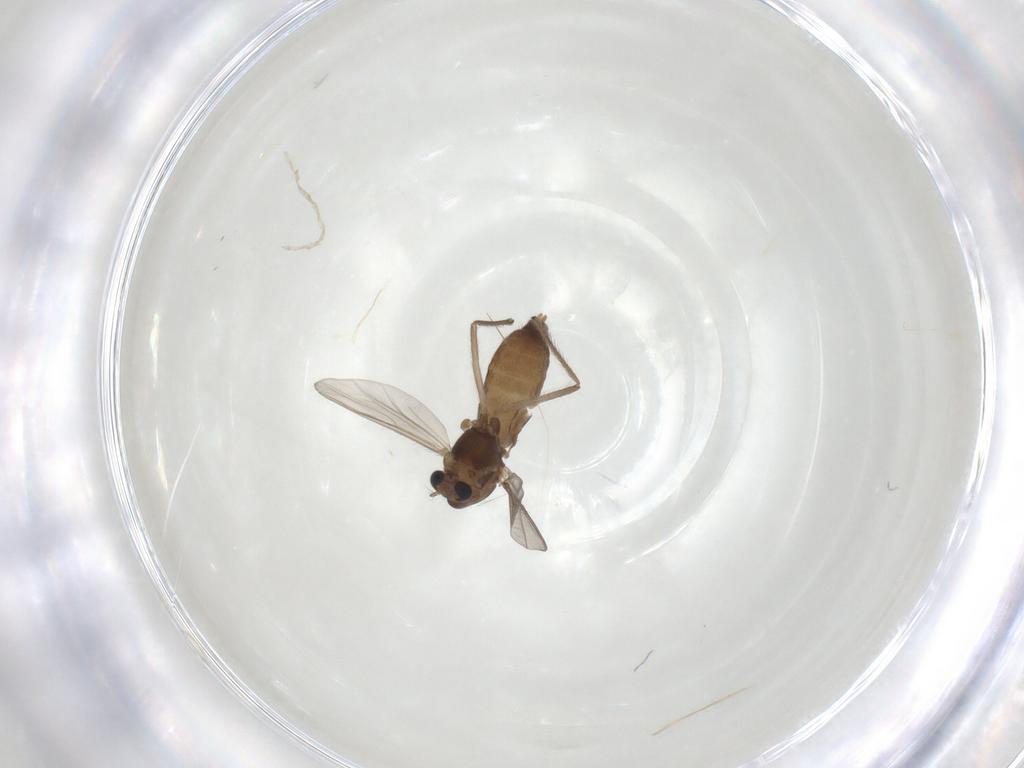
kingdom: Animalia
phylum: Arthropoda
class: Insecta
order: Diptera
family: Chironomidae
